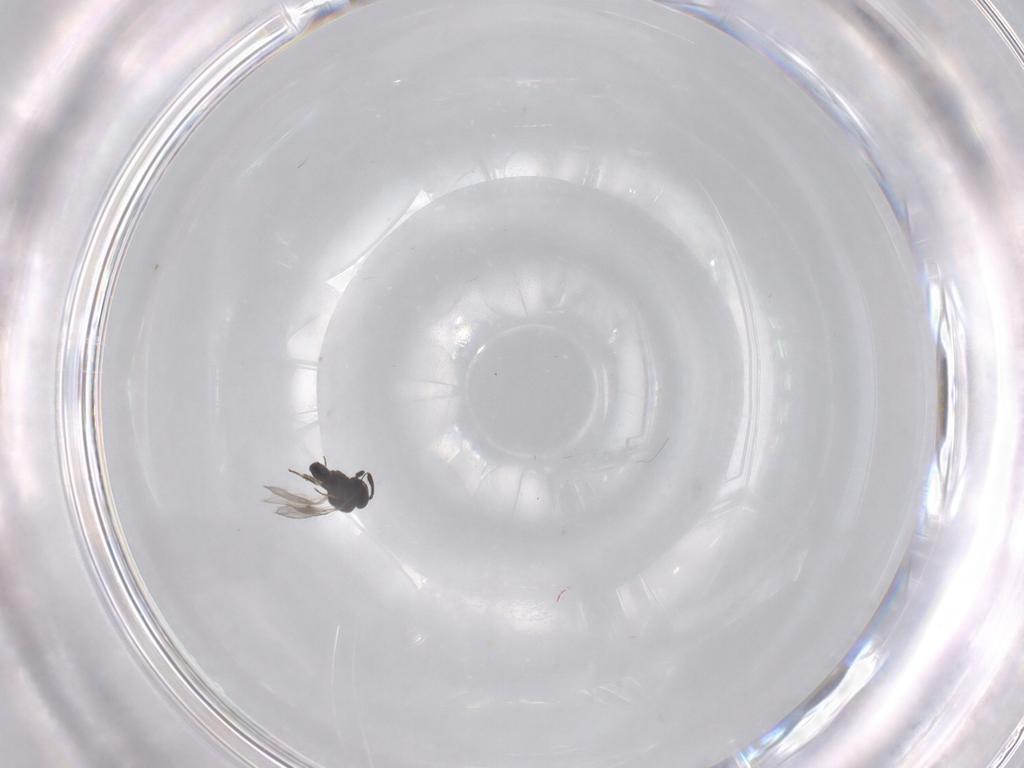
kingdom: Animalia
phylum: Arthropoda
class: Insecta
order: Hymenoptera
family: Scelionidae
